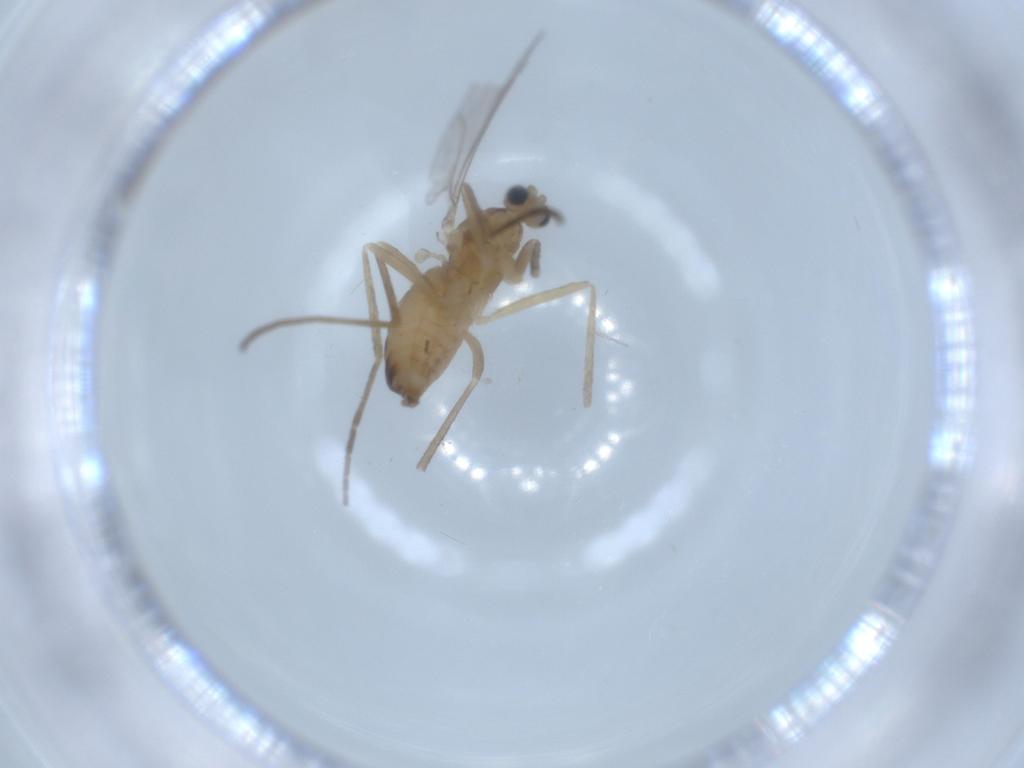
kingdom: Animalia
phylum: Arthropoda
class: Insecta
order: Diptera
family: Cecidomyiidae
